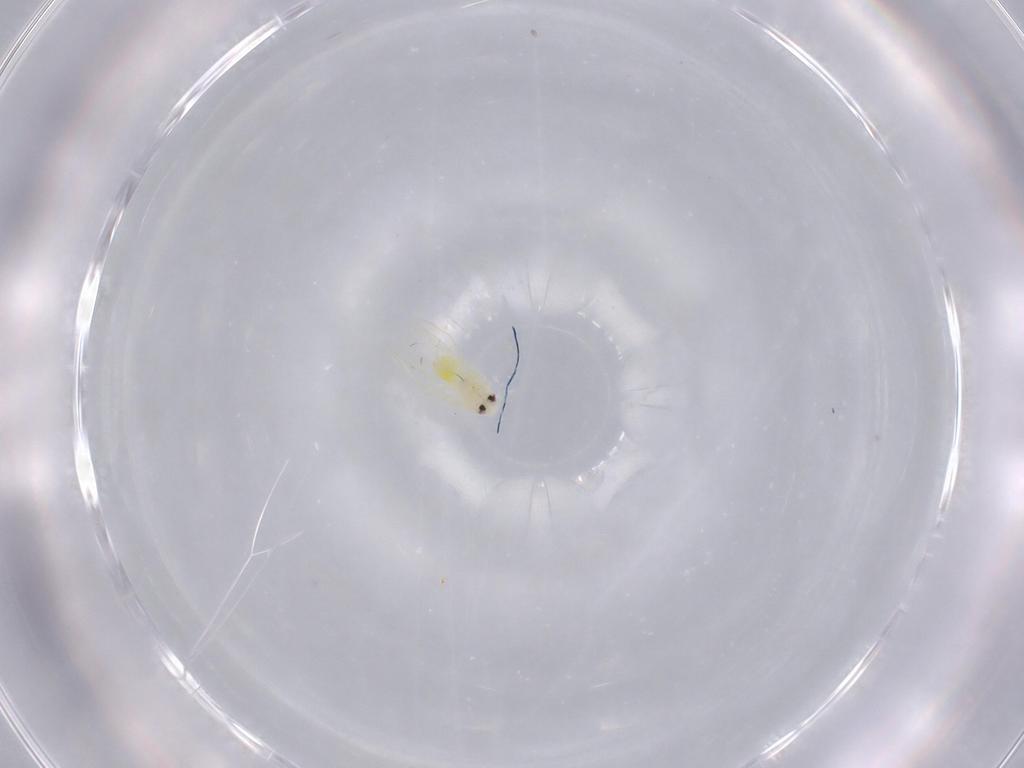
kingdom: Animalia
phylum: Arthropoda
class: Insecta
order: Hemiptera
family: Aleyrodidae
